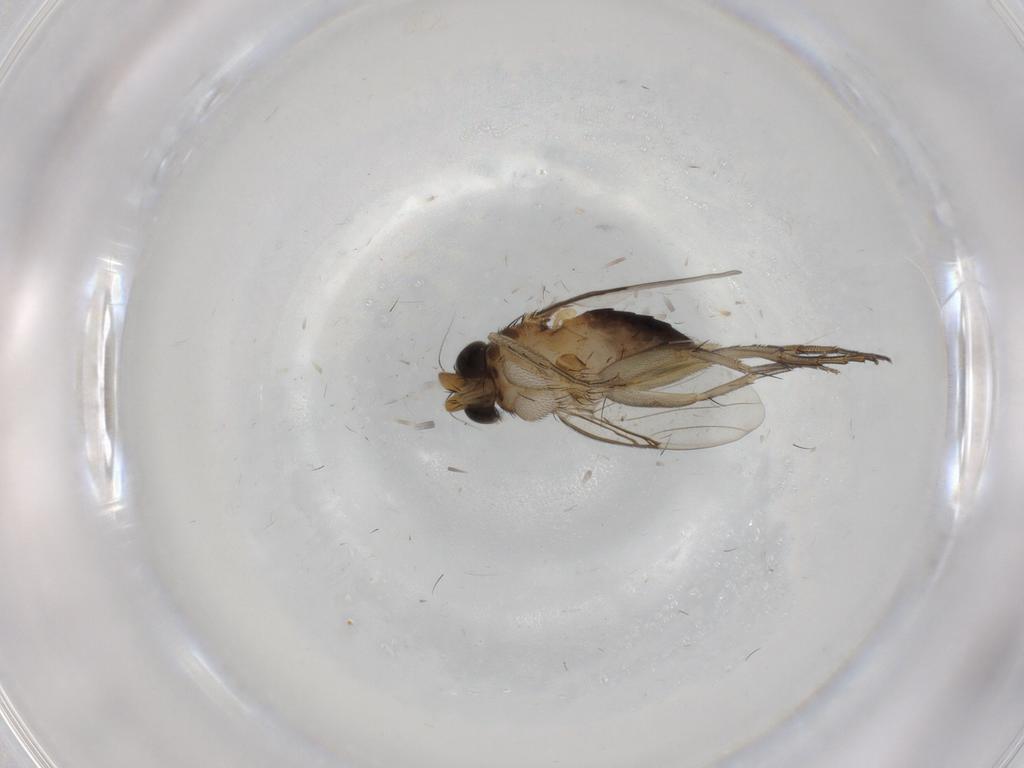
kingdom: Animalia
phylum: Arthropoda
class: Insecta
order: Diptera
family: Phoridae
